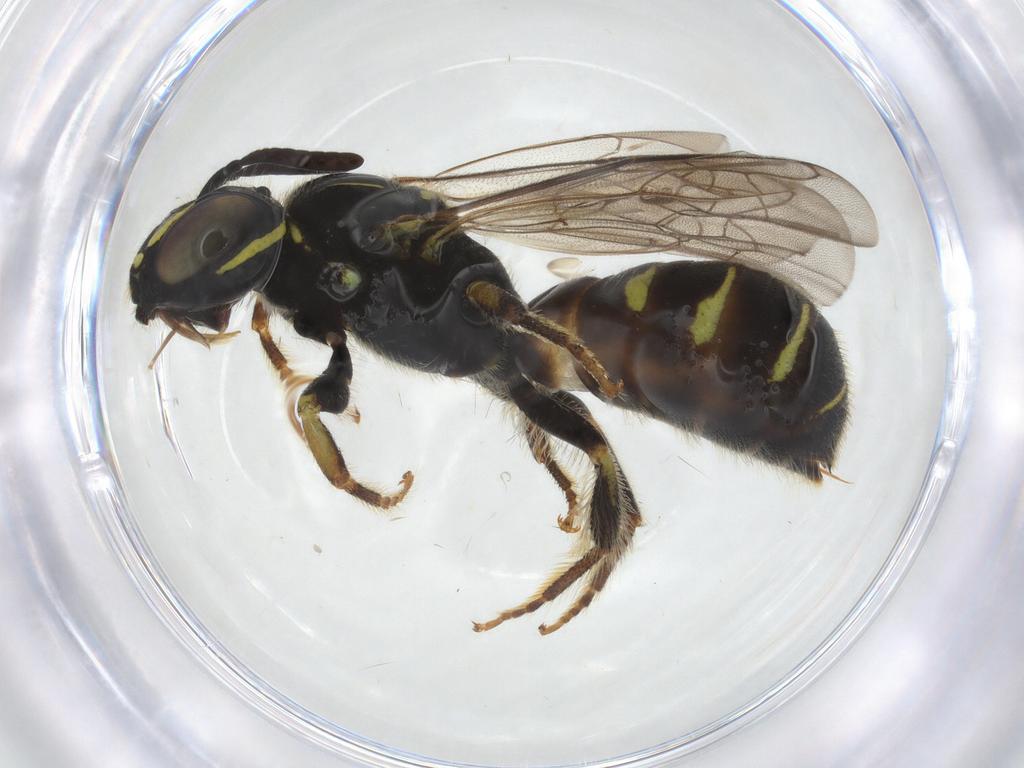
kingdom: Animalia
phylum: Arthropoda
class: Insecta
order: Hymenoptera
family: Apidae
